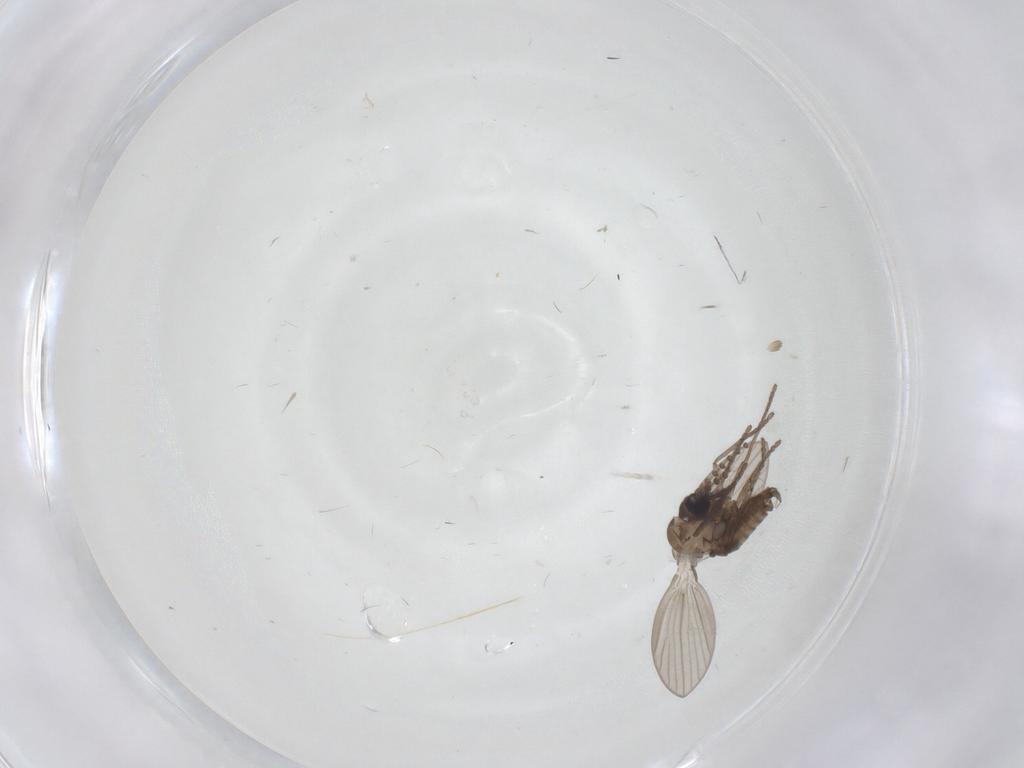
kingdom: Animalia
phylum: Arthropoda
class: Insecta
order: Diptera
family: Psychodidae
